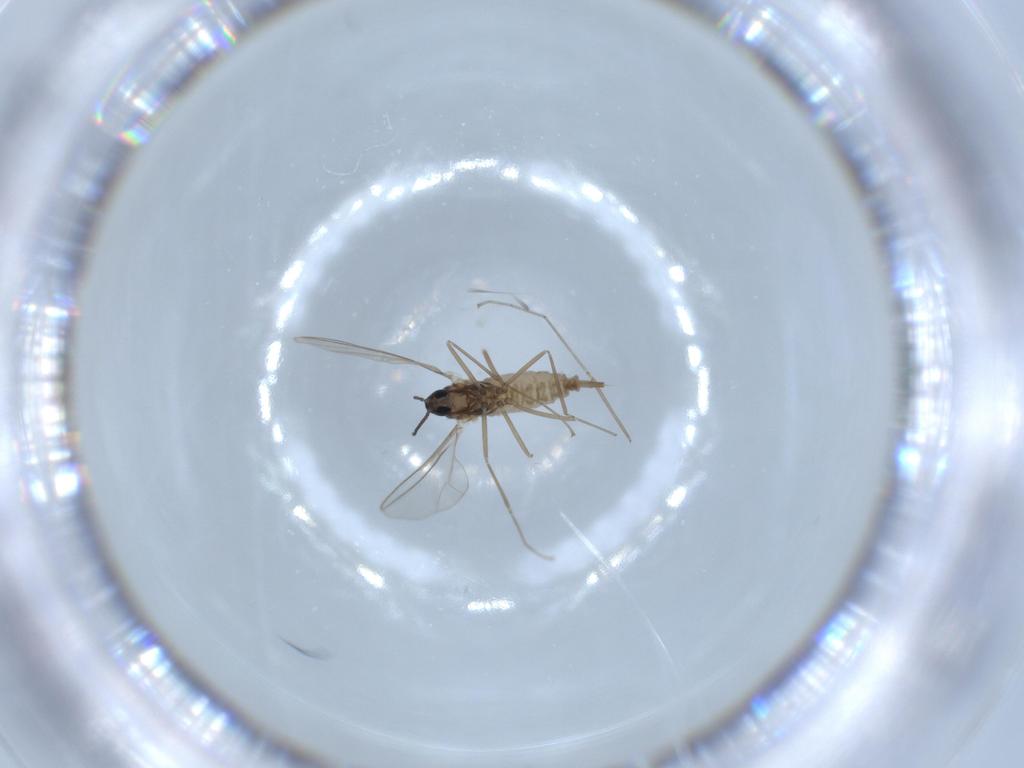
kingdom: Animalia
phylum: Arthropoda
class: Insecta
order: Diptera
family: Cecidomyiidae
